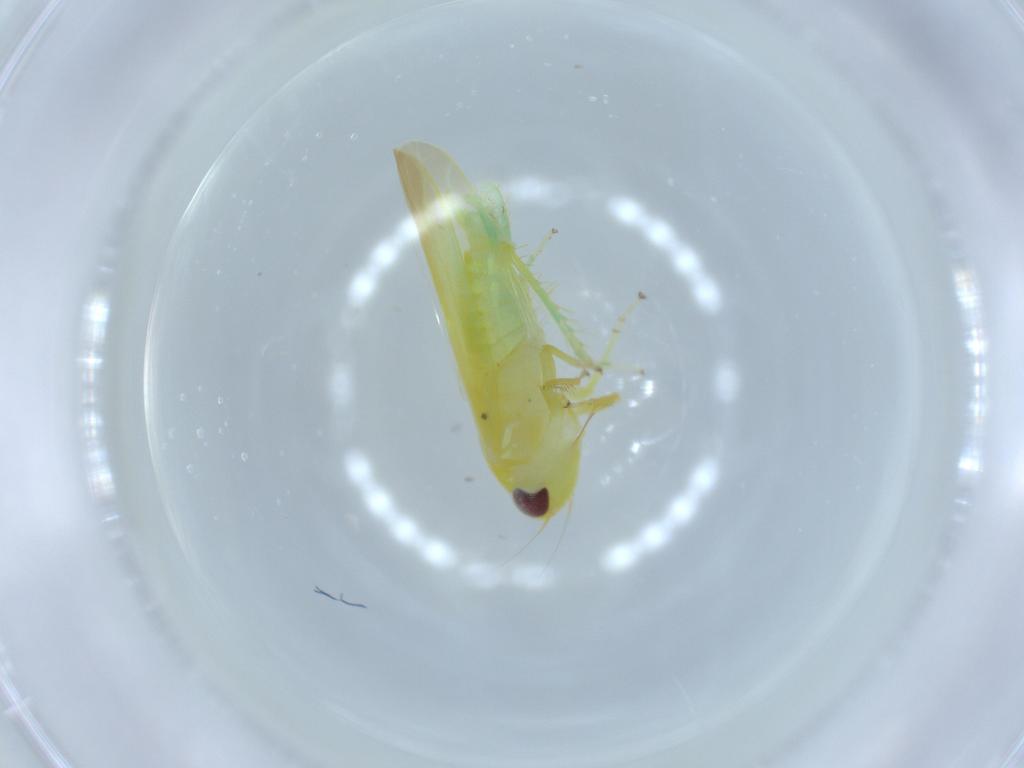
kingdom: Animalia
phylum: Arthropoda
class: Insecta
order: Hemiptera
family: Cicadellidae
